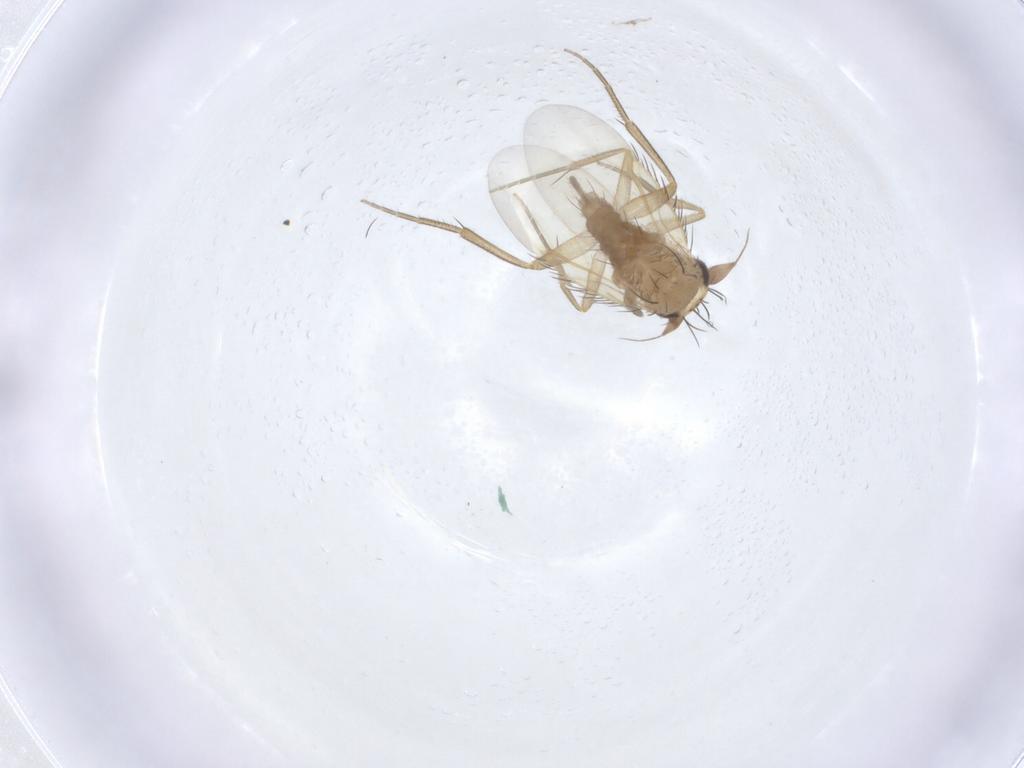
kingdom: Animalia
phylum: Arthropoda
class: Insecta
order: Diptera
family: Phoridae
